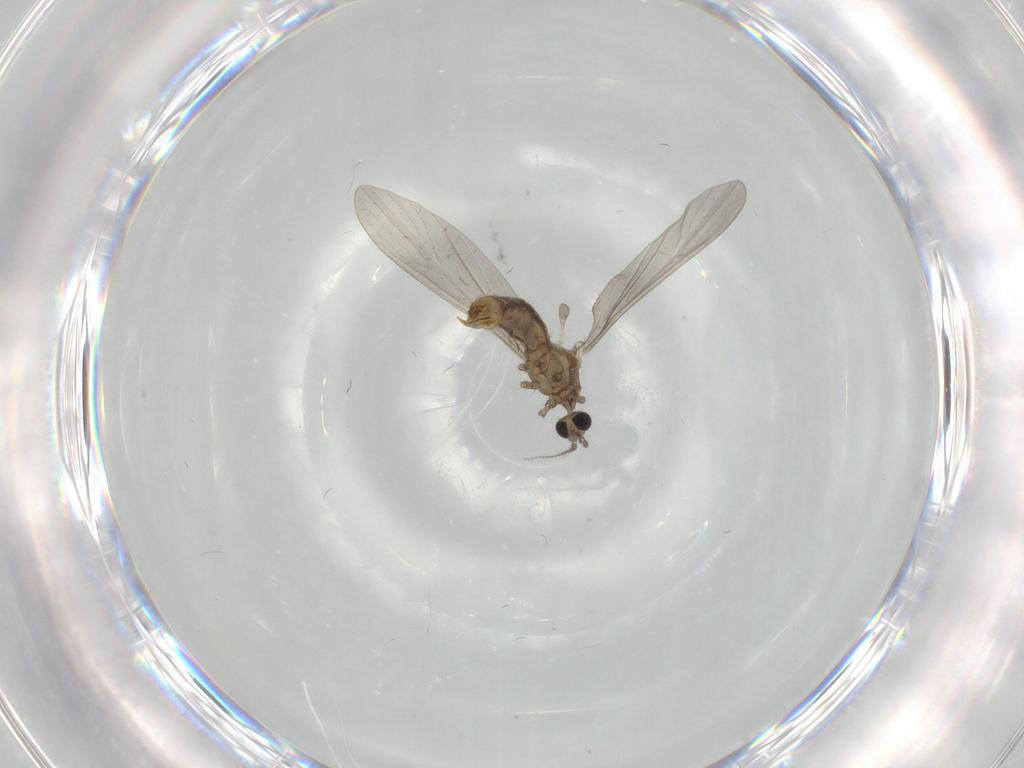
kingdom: Animalia
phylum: Arthropoda
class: Insecta
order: Diptera
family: Limoniidae
